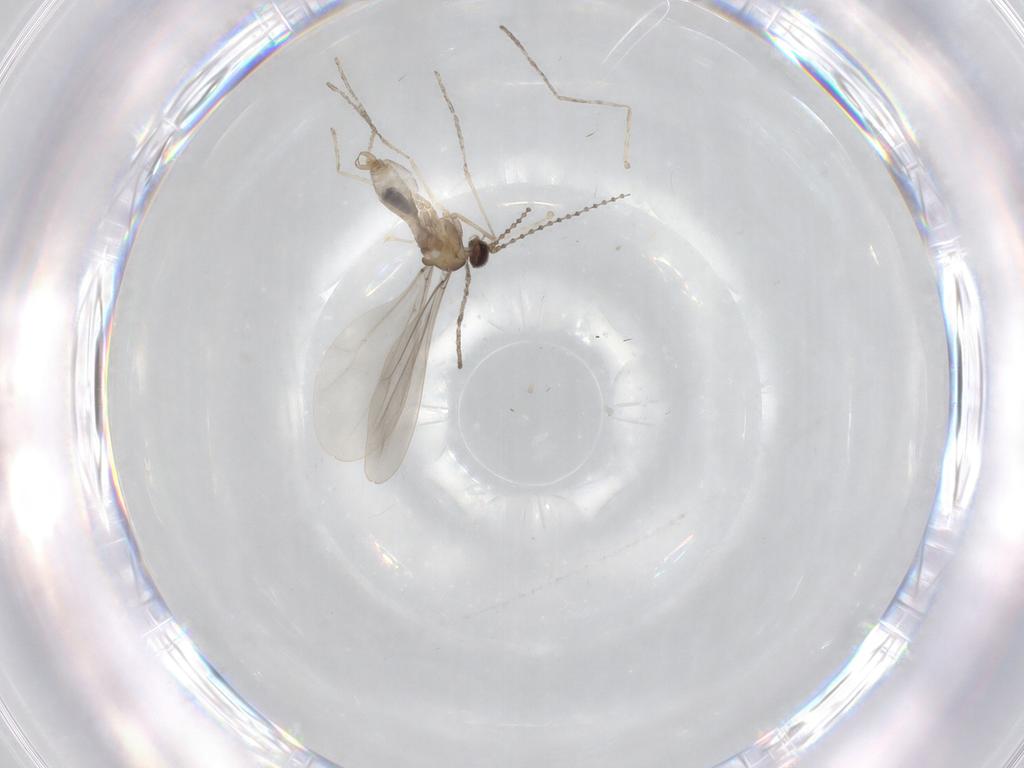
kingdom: Animalia
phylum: Arthropoda
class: Insecta
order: Diptera
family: Cecidomyiidae
